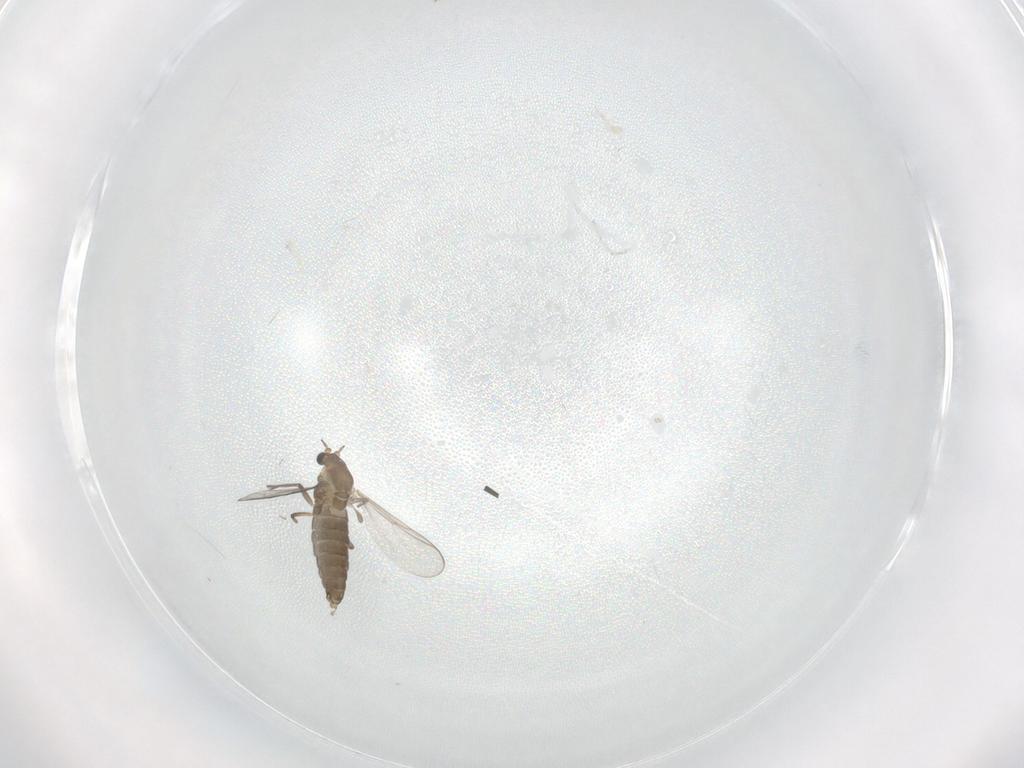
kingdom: Animalia
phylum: Arthropoda
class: Insecta
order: Diptera
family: Chironomidae
